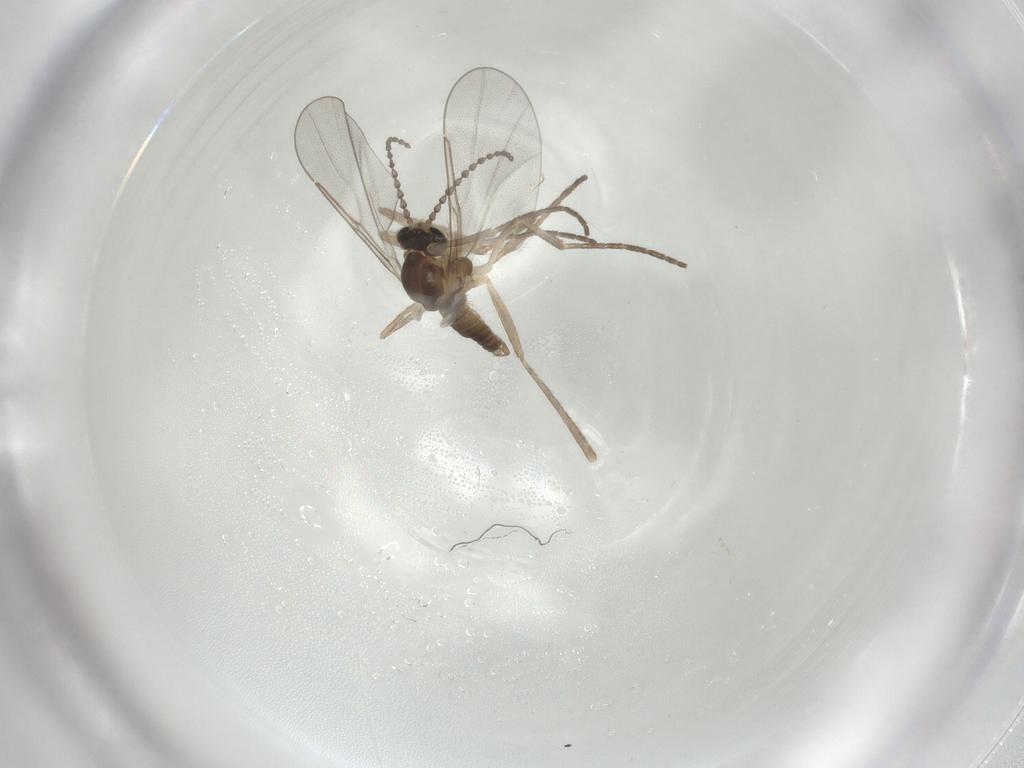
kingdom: Animalia
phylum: Arthropoda
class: Insecta
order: Diptera
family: Cecidomyiidae
